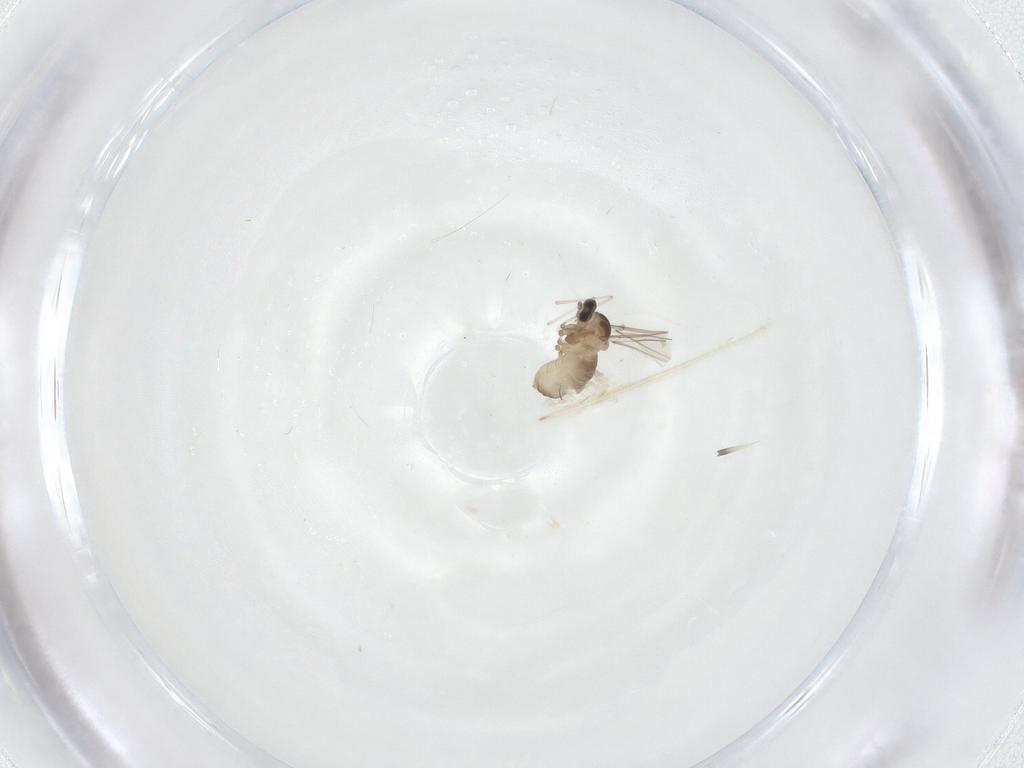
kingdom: Animalia
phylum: Arthropoda
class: Insecta
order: Diptera
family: Cecidomyiidae
